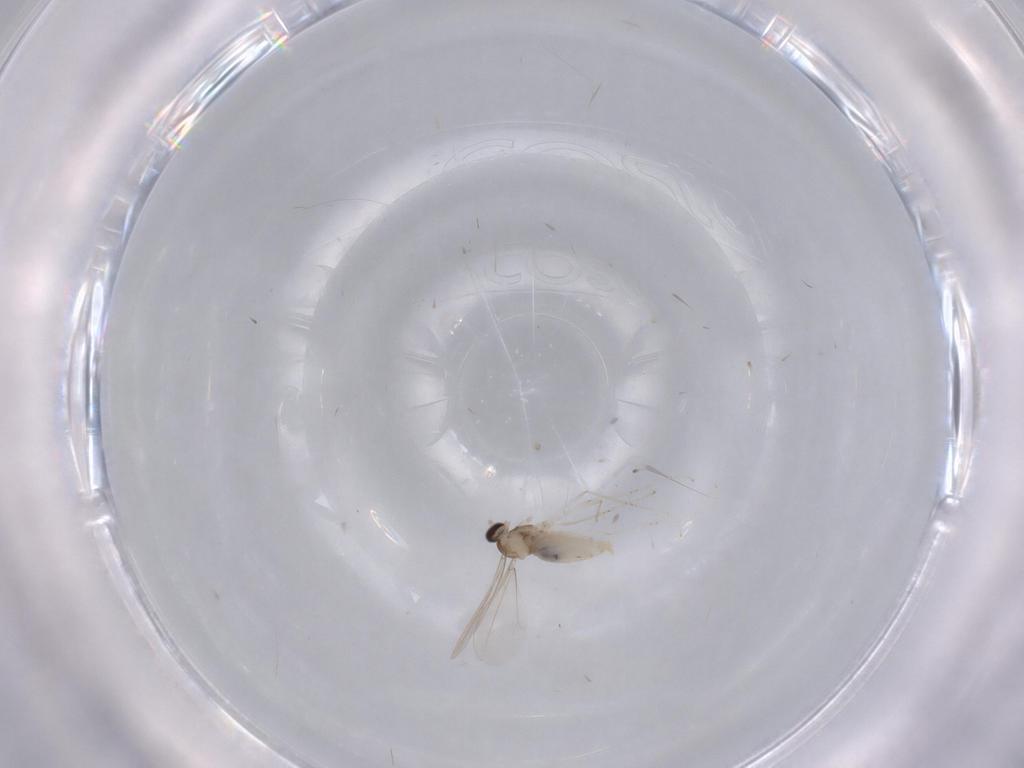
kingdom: Animalia
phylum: Arthropoda
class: Insecta
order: Diptera
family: Cecidomyiidae
